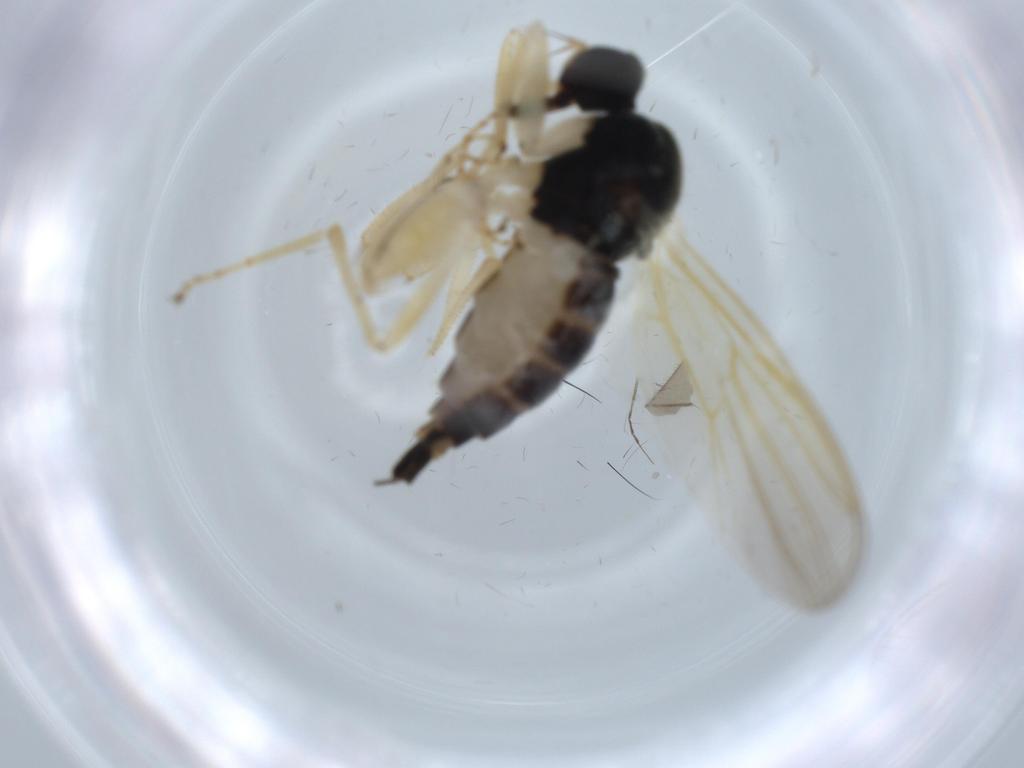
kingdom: Animalia
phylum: Arthropoda
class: Insecta
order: Diptera
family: Hybotidae
